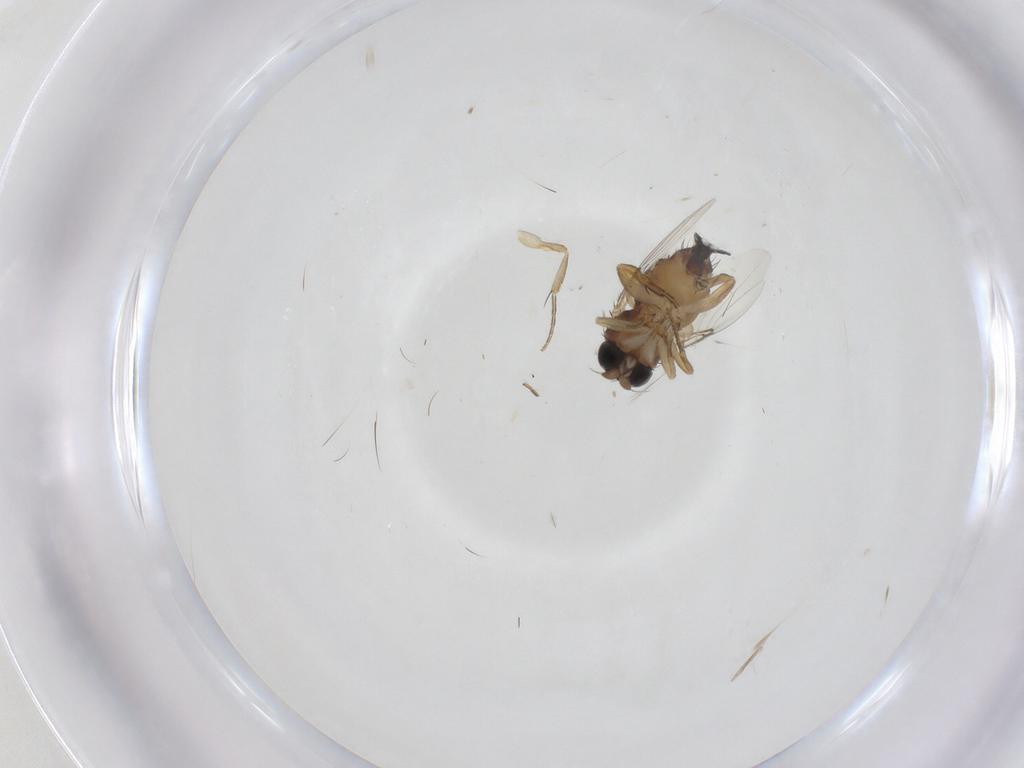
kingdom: Animalia
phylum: Arthropoda
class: Insecta
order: Diptera
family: Phoridae
